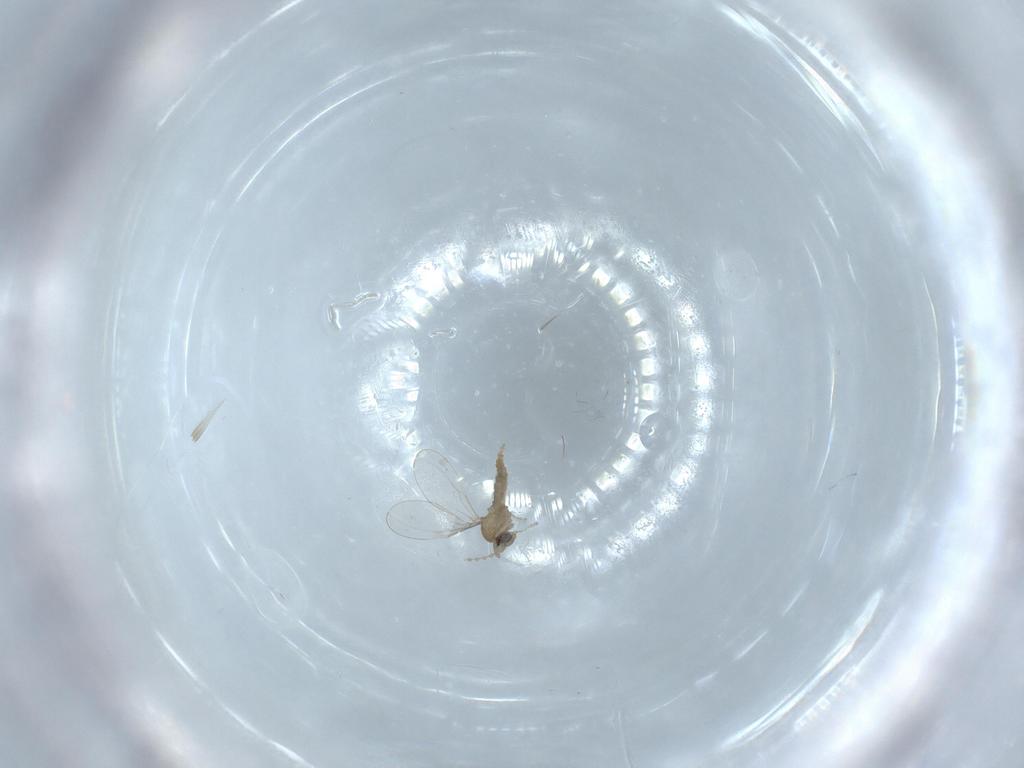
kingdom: Animalia
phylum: Arthropoda
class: Insecta
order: Diptera
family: Cecidomyiidae
